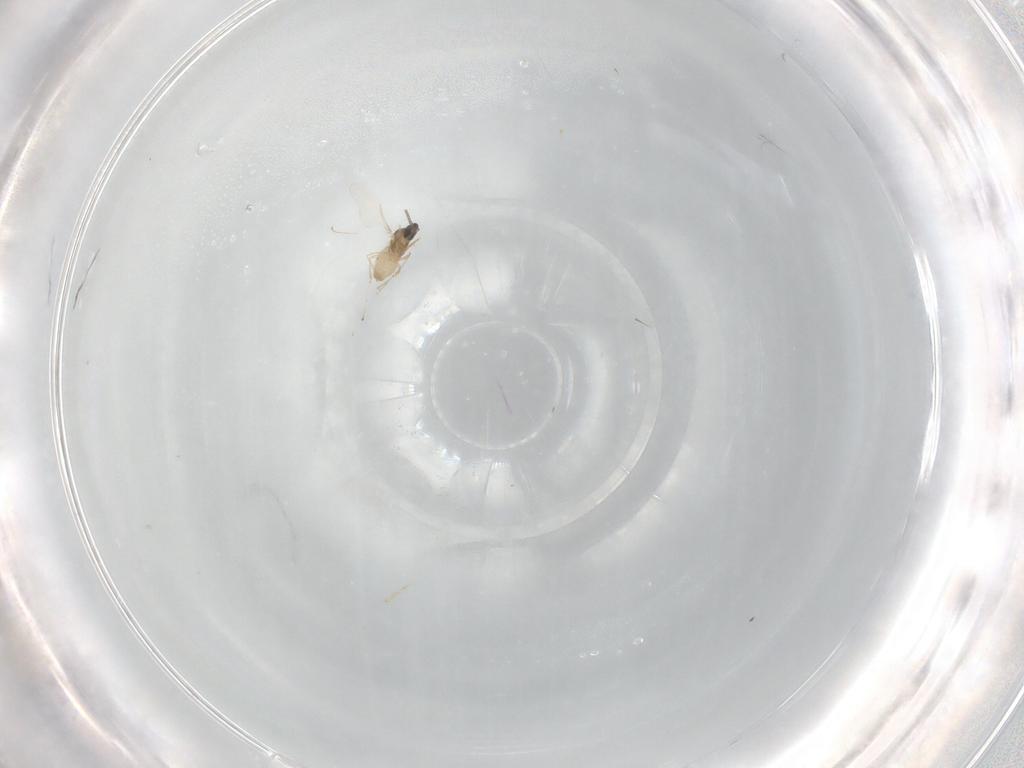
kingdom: Animalia
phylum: Arthropoda
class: Insecta
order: Diptera
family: Cecidomyiidae
